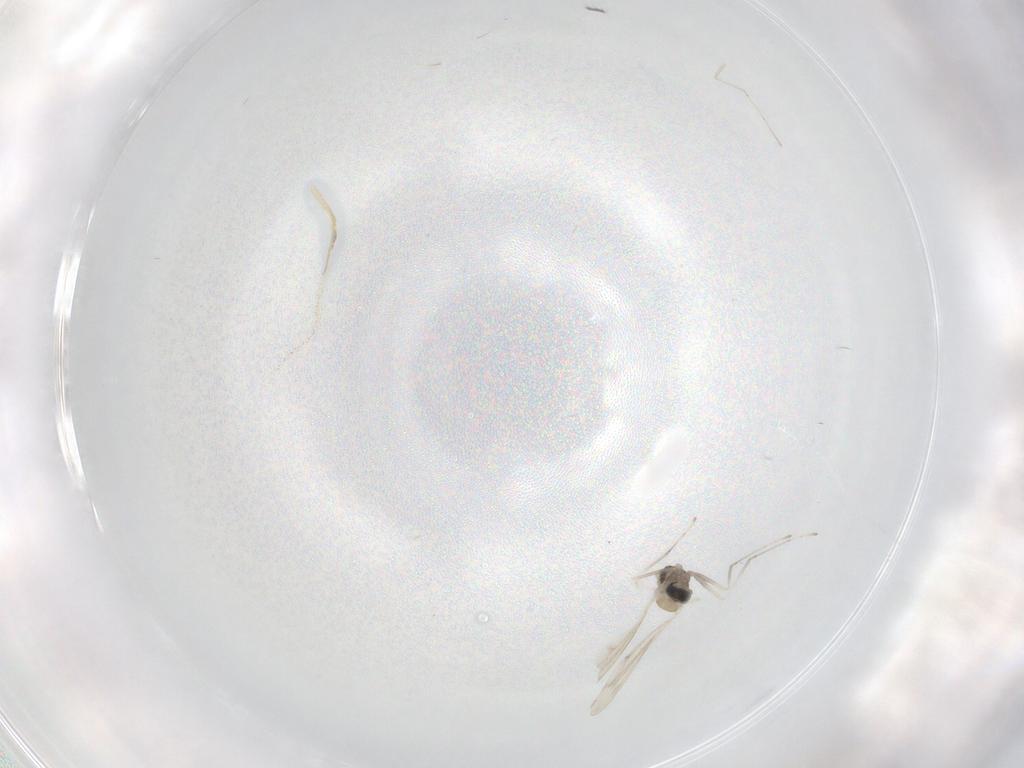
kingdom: Animalia
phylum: Arthropoda
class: Insecta
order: Diptera
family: Cecidomyiidae
